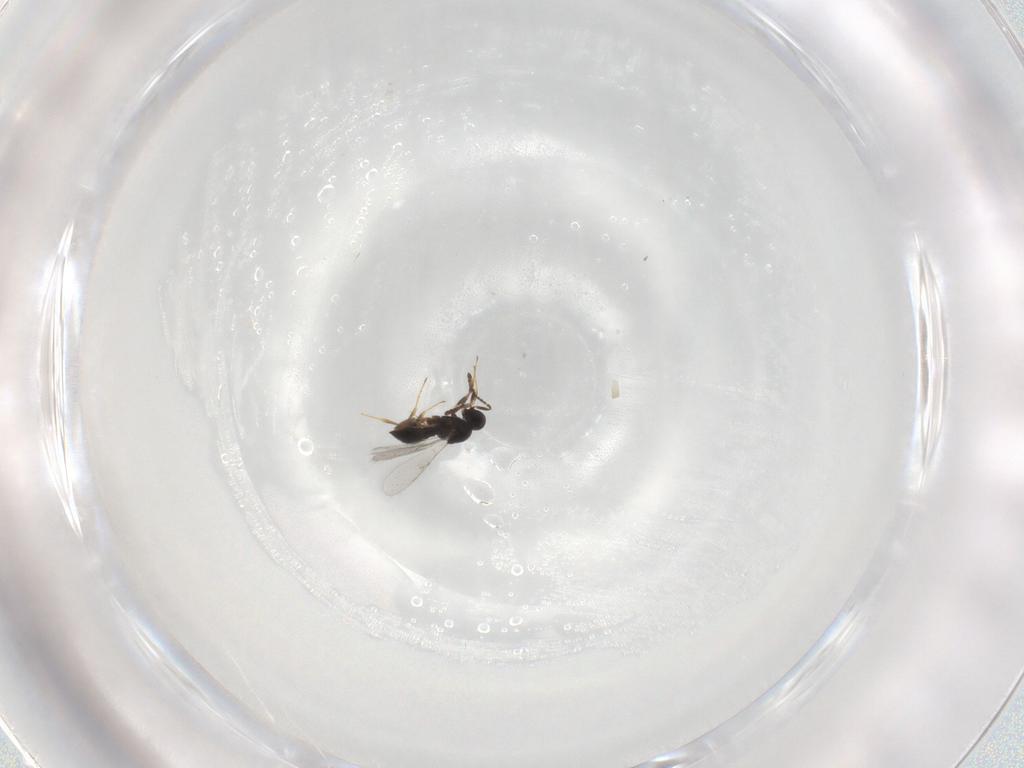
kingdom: Animalia
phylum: Arthropoda
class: Insecta
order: Hymenoptera
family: Scelionidae
